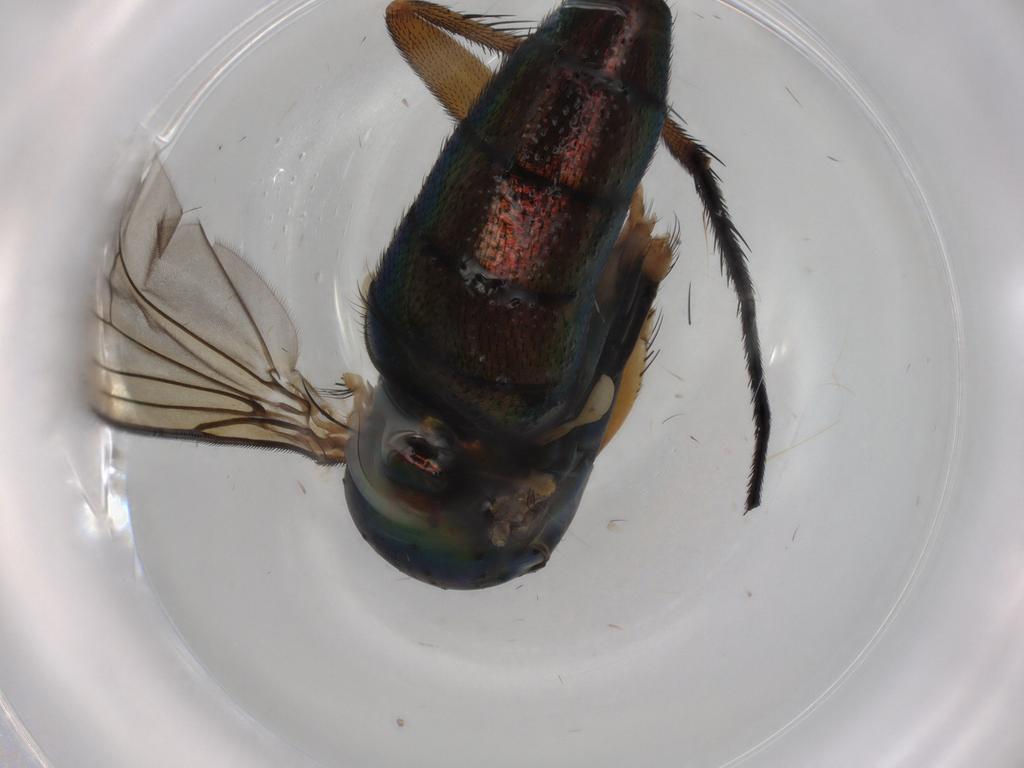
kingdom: Animalia
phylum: Arthropoda
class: Insecta
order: Diptera
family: Dolichopodidae
